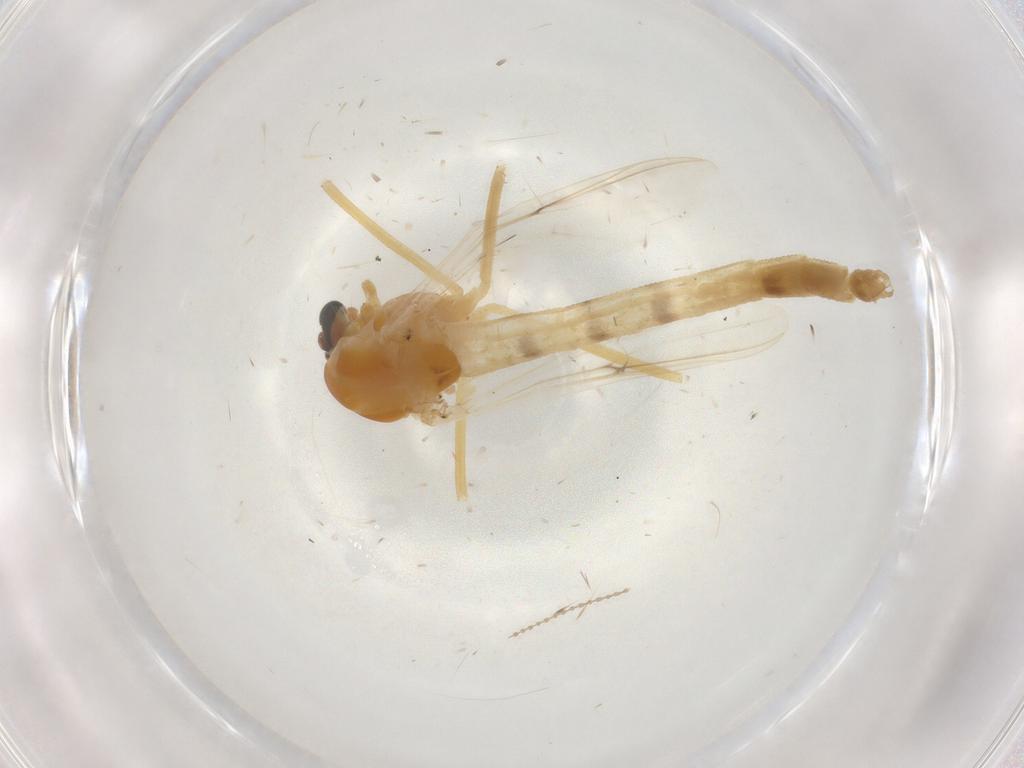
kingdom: Animalia
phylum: Arthropoda
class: Insecta
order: Diptera
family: Chironomidae
